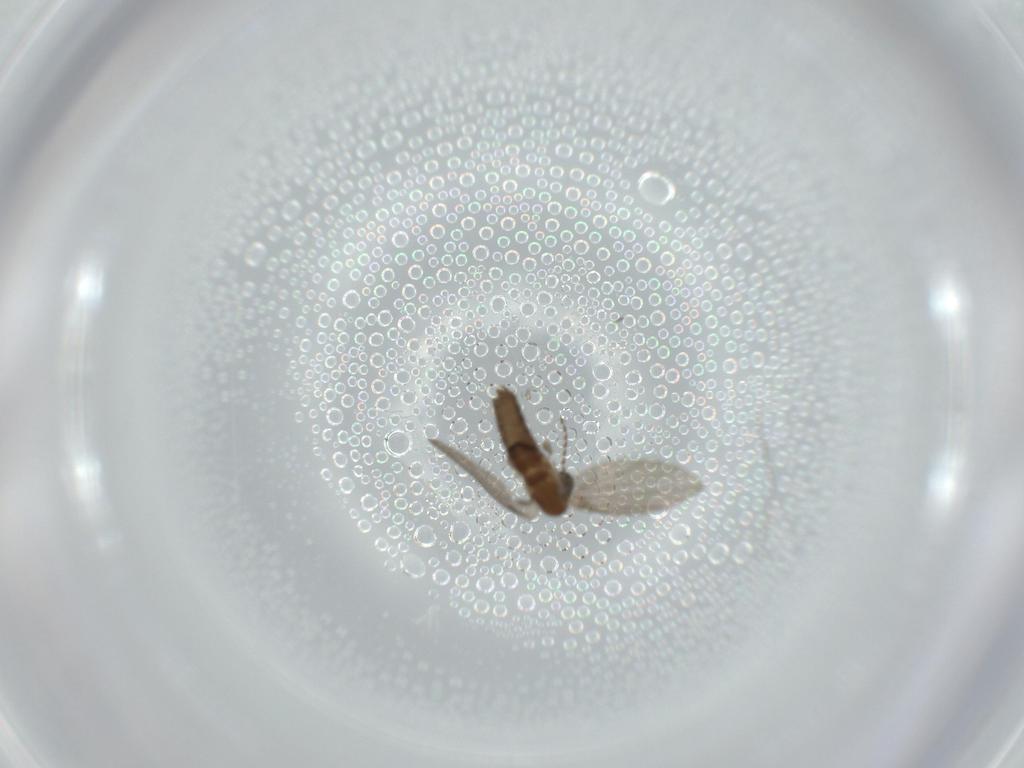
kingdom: Animalia
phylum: Arthropoda
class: Insecta
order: Diptera
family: Psychodidae
